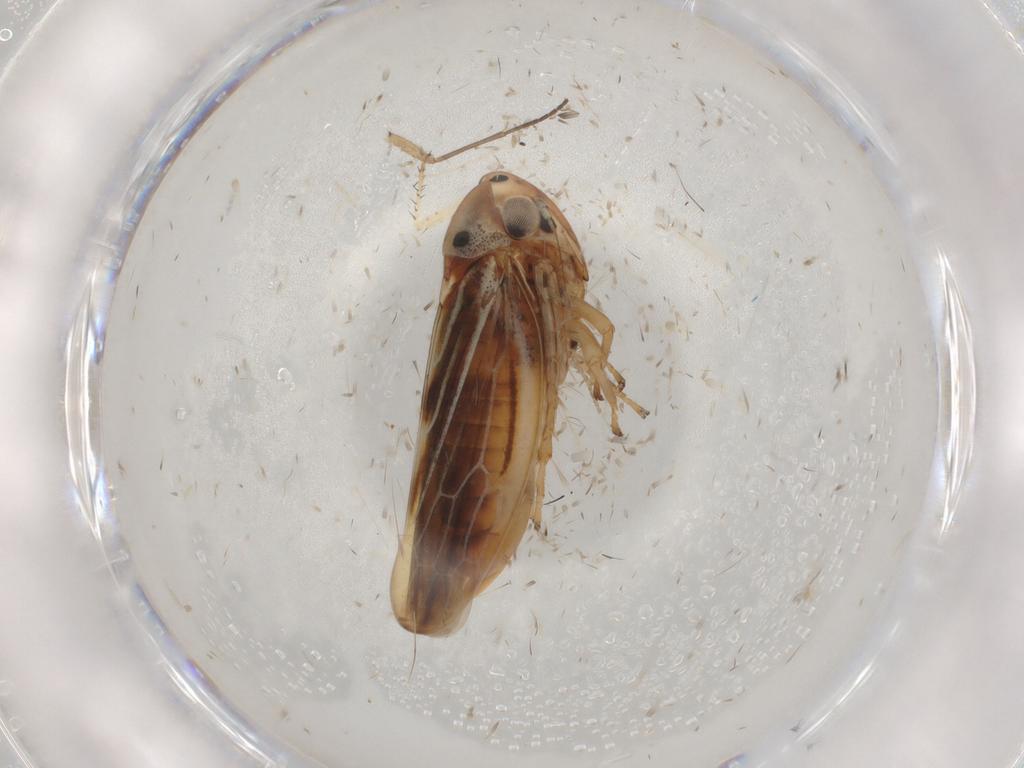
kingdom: Animalia
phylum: Arthropoda
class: Insecta
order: Hemiptera
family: Cicadellidae
